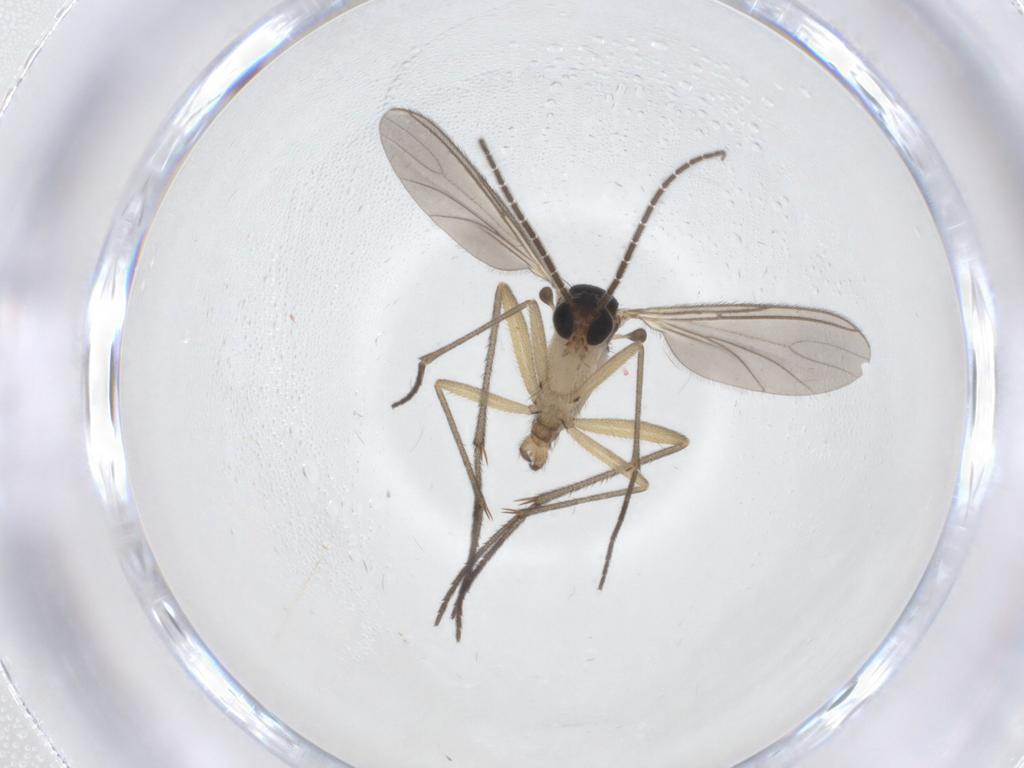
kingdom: Animalia
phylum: Arthropoda
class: Insecta
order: Diptera
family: Sciaridae
